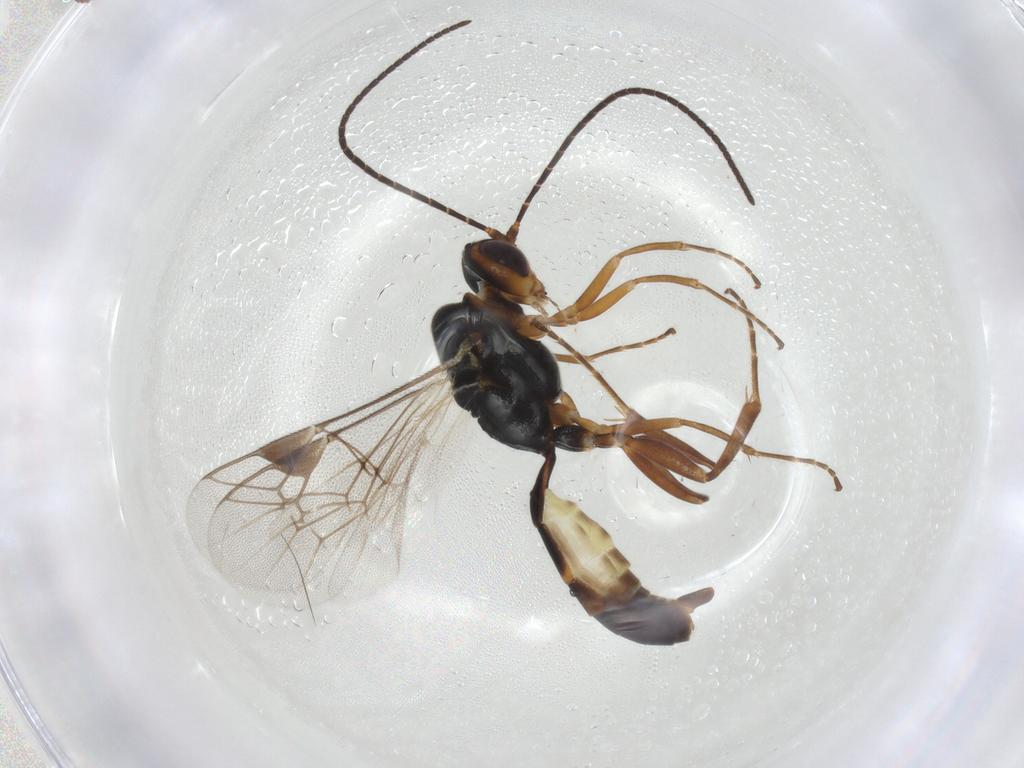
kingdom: Animalia
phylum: Arthropoda
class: Insecta
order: Hymenoptera
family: Ichneumonidae
